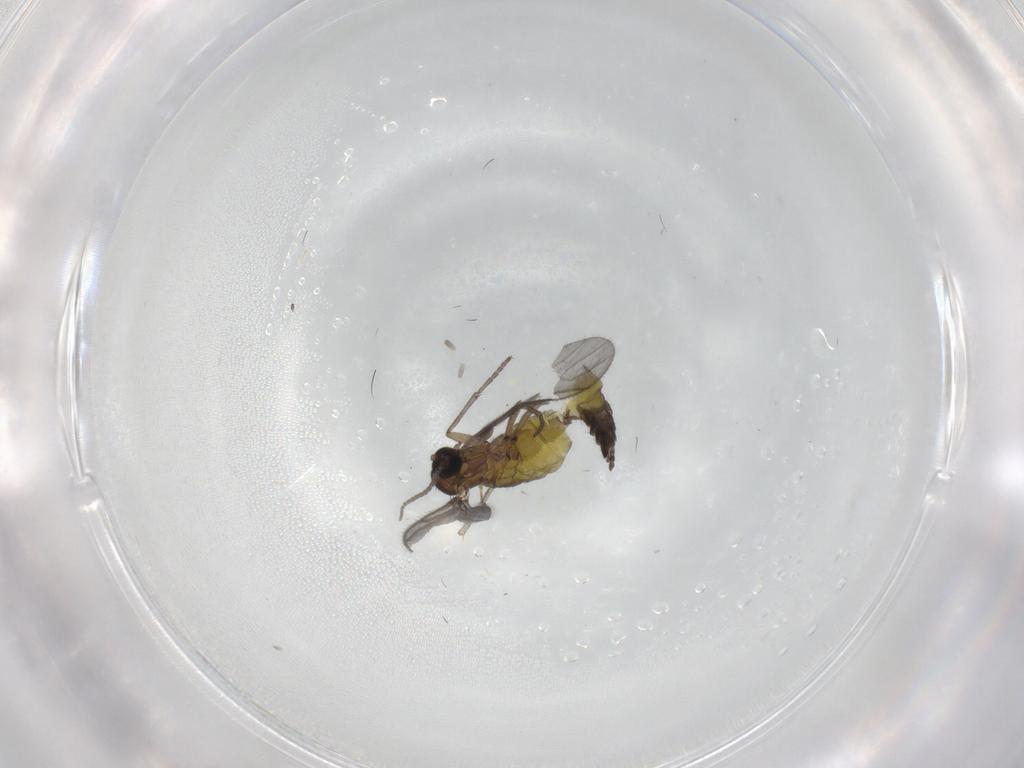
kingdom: Animalia
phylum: Arthropoda
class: Insecta
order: Diptera
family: Sciaridae
